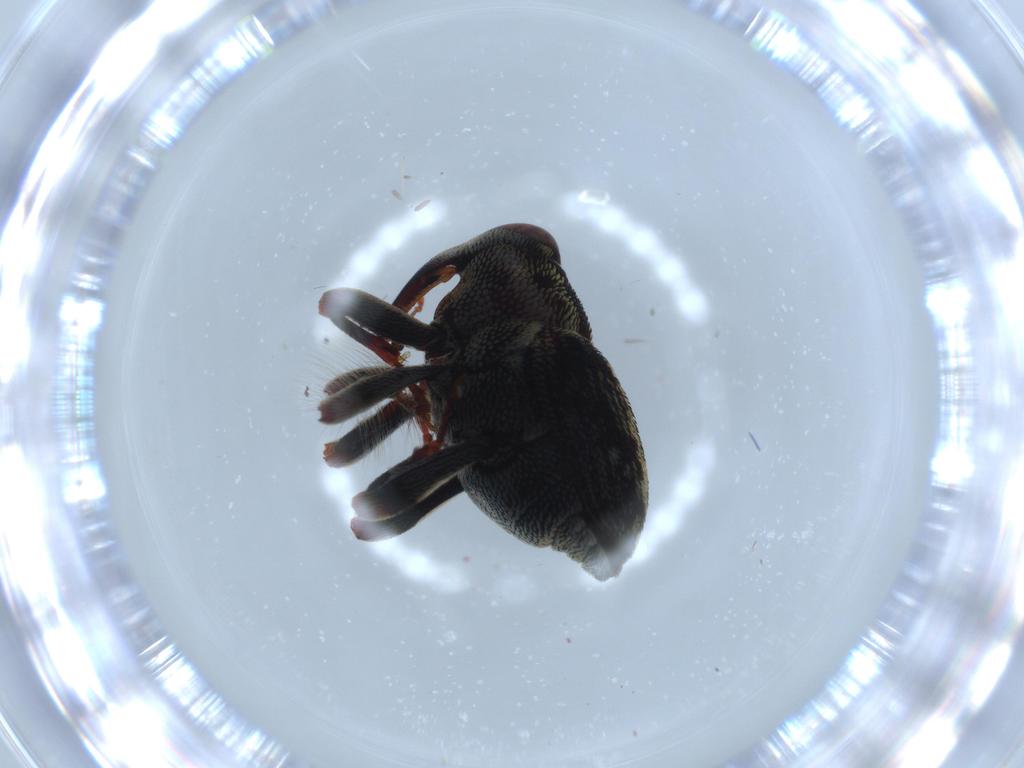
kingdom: Animalia
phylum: Arthropoda
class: Insecta
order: Coleoptera
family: Curculionidae
